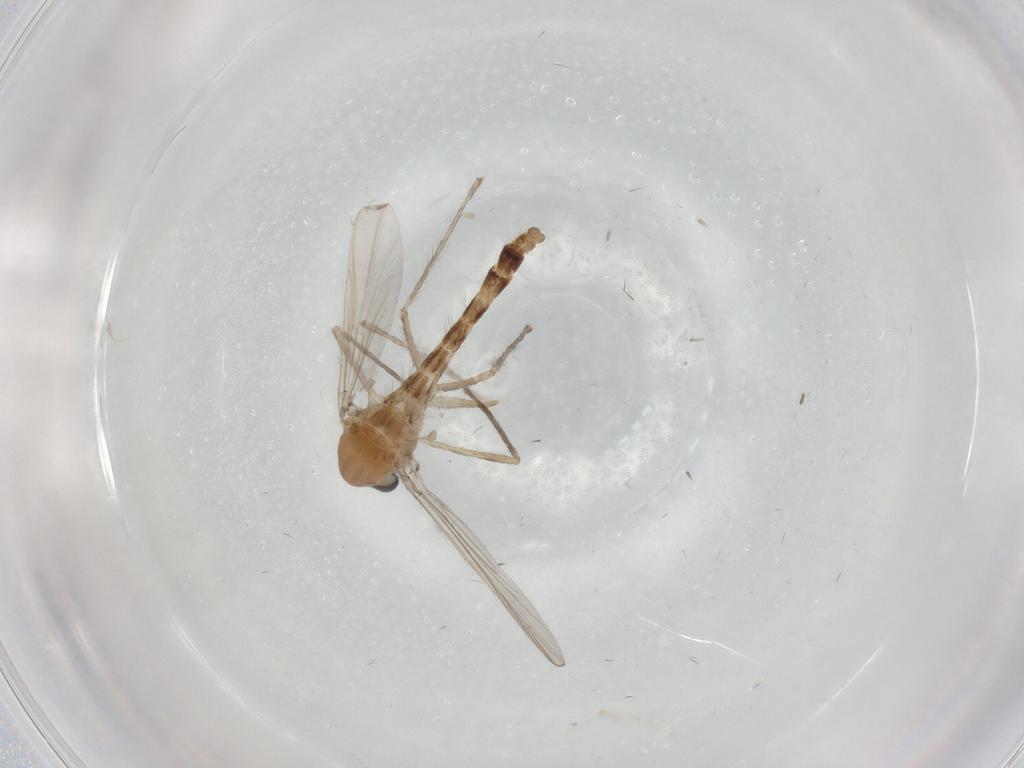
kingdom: Animalia
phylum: Arthropoda
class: Insecta
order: Diptera
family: Cecidomyiidae
